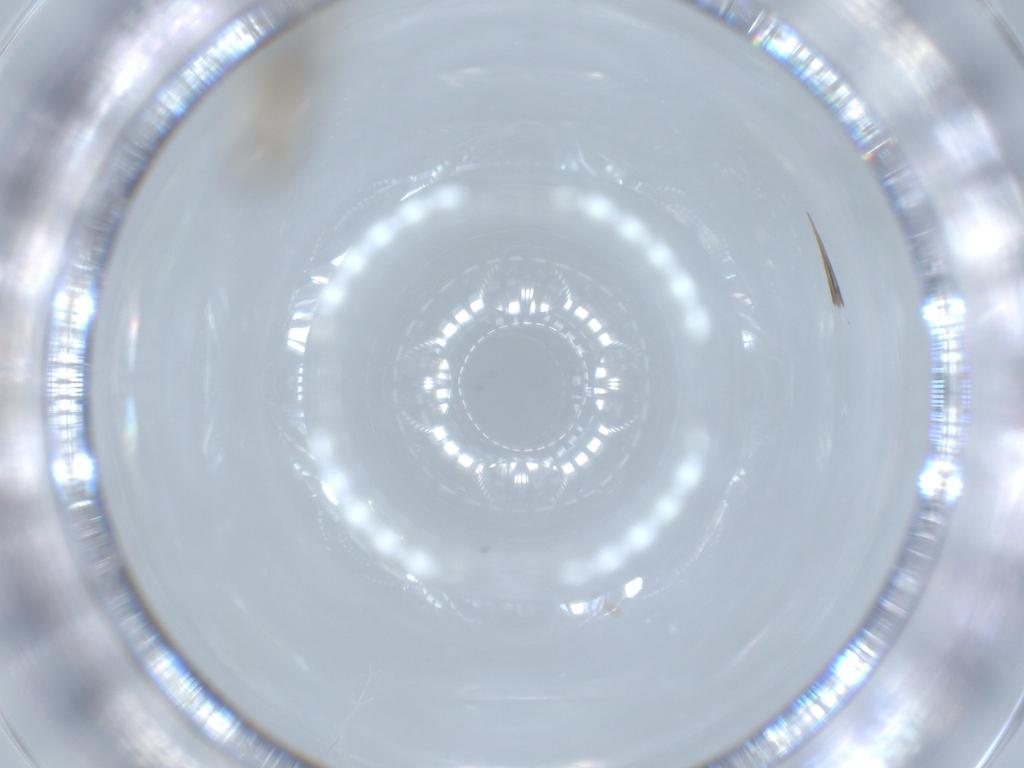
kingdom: Animalia
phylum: Arthropoda
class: Insecta
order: Diptera
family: Cecidomyiidae
